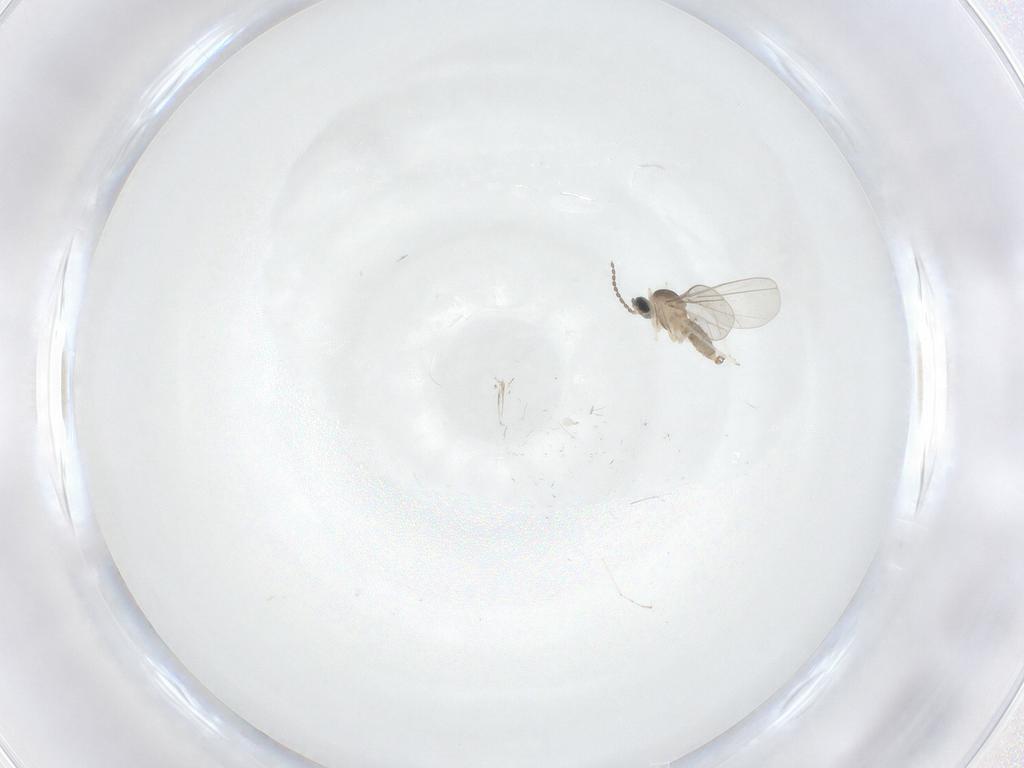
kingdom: Animalia
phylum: Arthropoda
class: Insecta
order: Diptera
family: Cecidomyiidae
